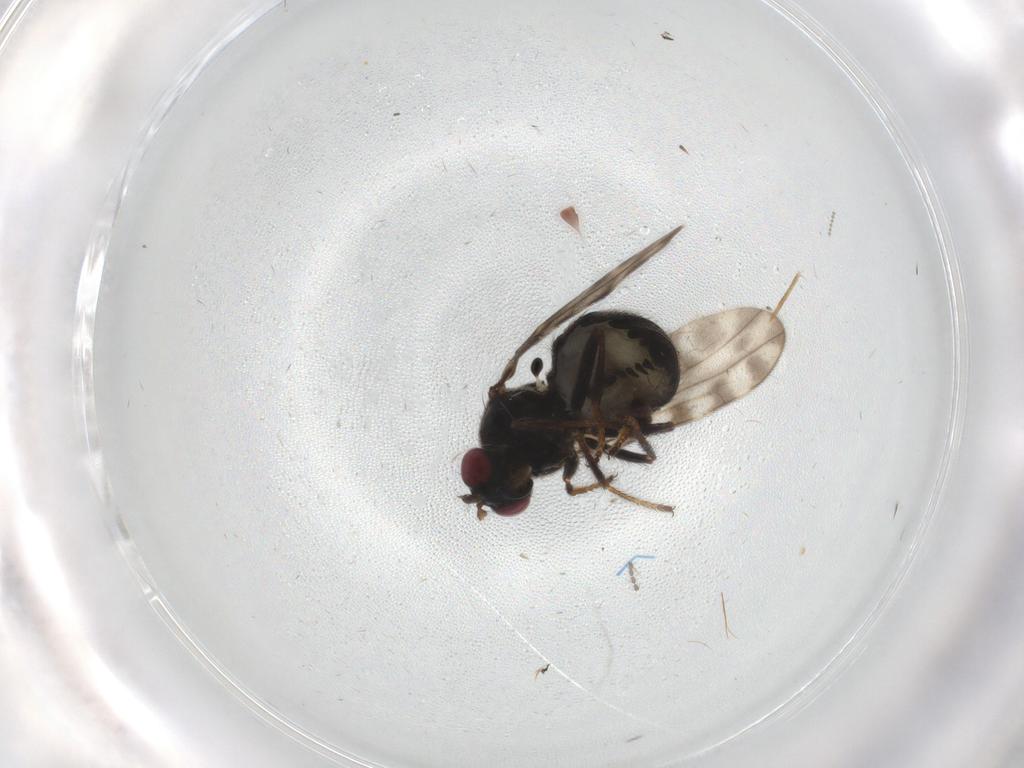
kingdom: Animalia
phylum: Arthropoda
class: Insecta
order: Diptera
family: Ephydridae
